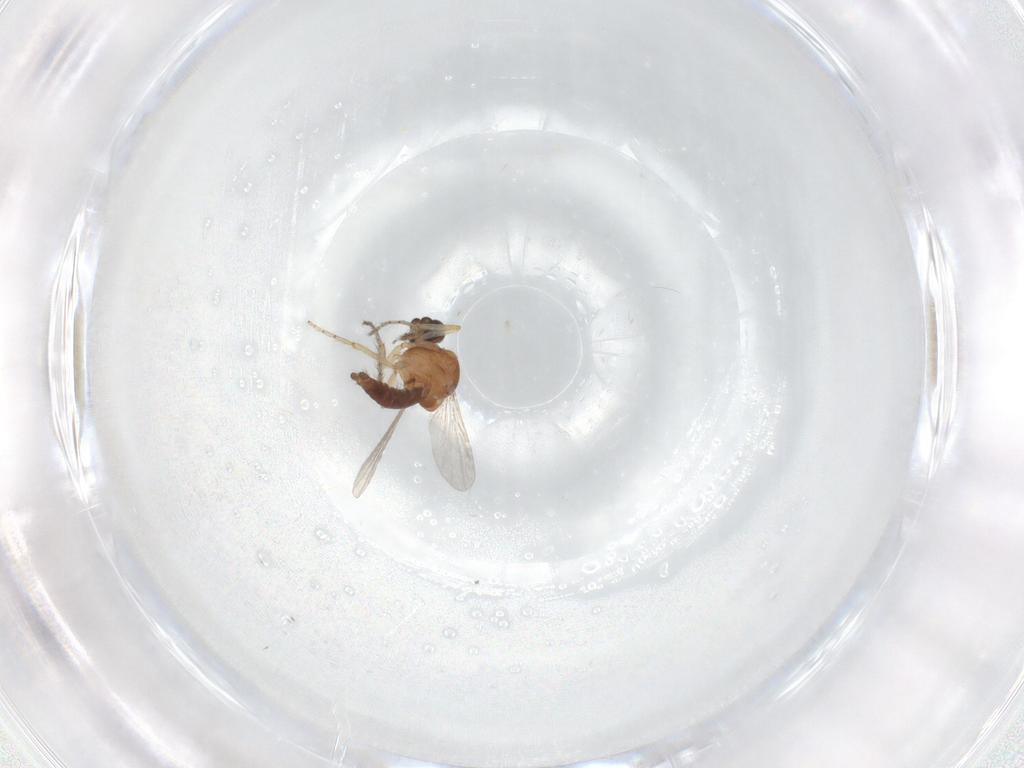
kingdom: Animalia
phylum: Arthropoda
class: Insecta
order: Diptera
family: Ceratopogonidae
